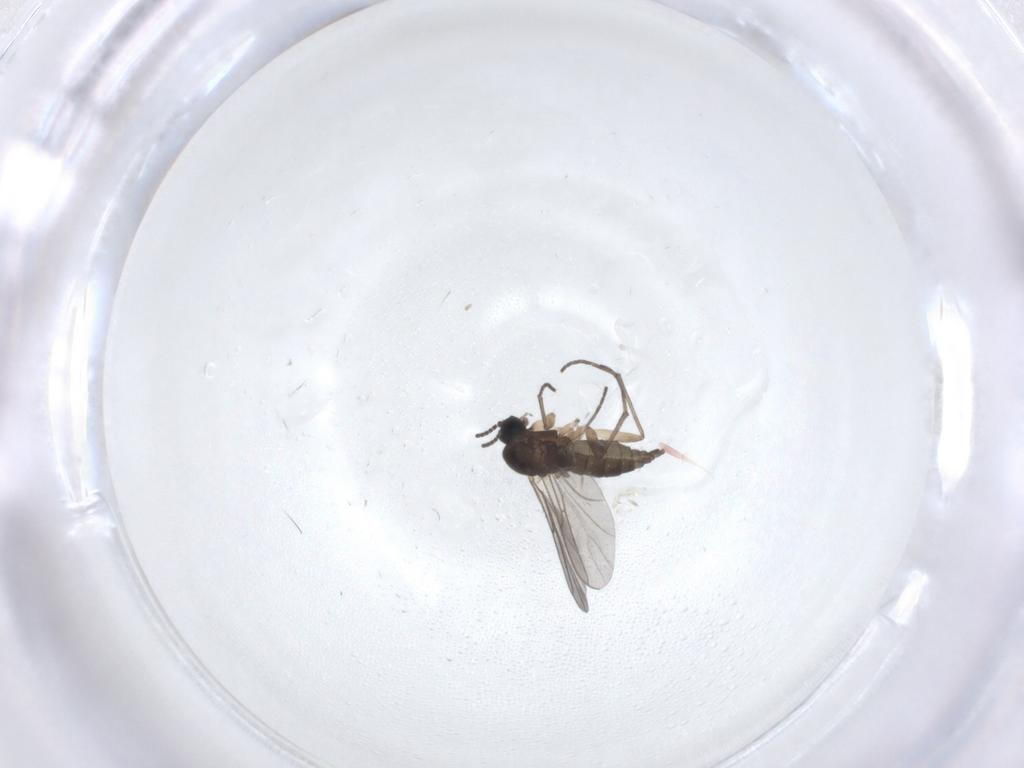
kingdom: Animalia
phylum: Arthropoda
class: Insecta
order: Diptera
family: Sciaridae
